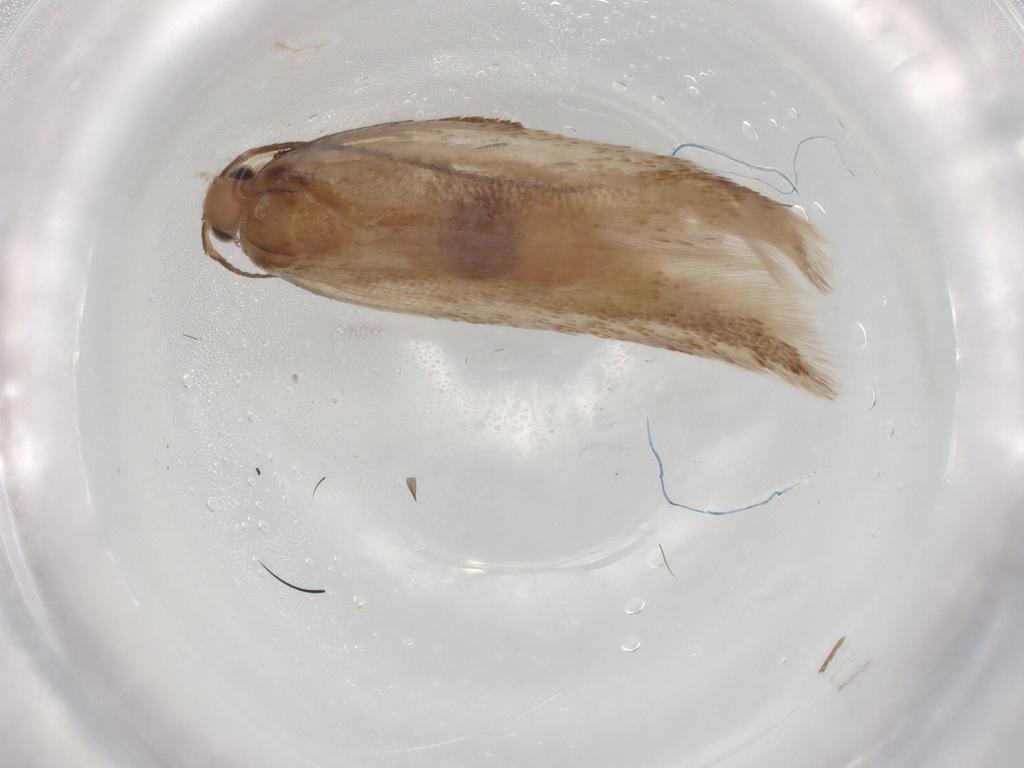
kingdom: Animalia
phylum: Arthropoda
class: Insecta
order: Lepidoptera
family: Gelechiidae
